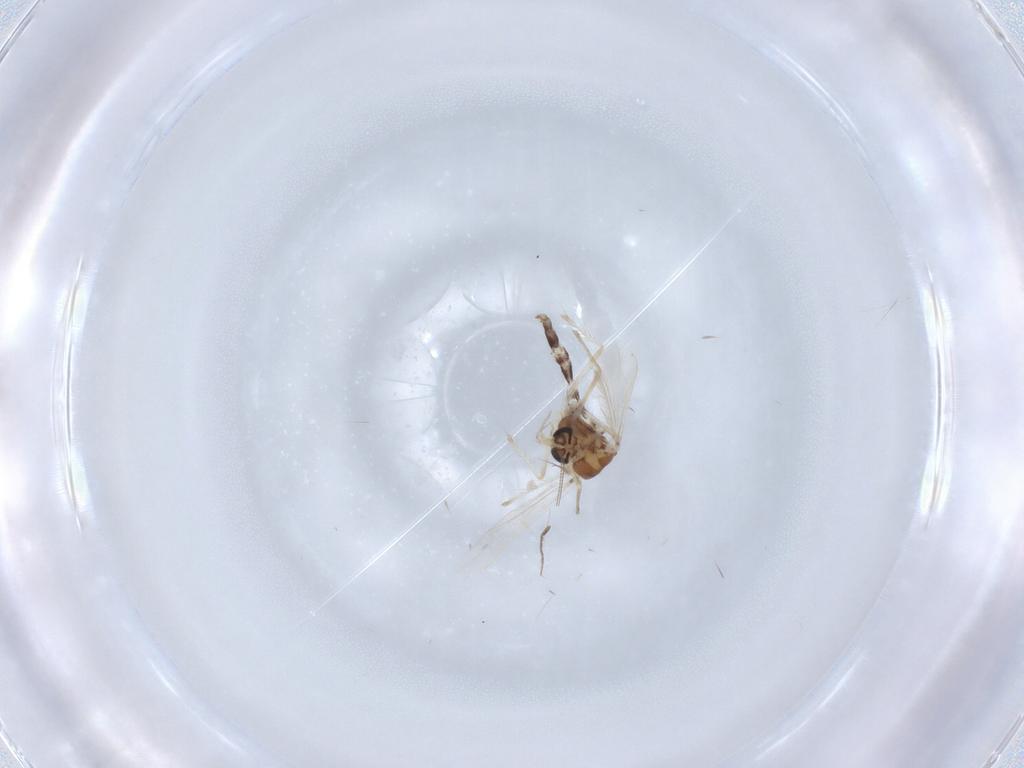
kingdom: Animalia
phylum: Arthropoda
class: Insecta
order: Diptera
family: Chironomidae
